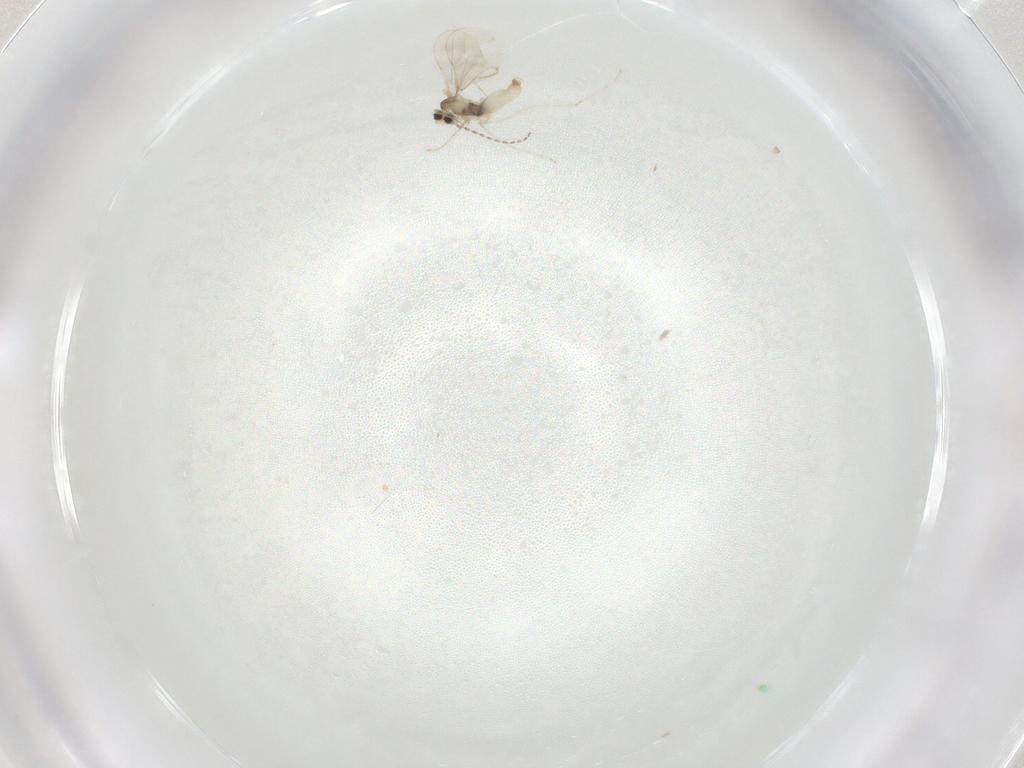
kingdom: Animalia
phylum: Arthropoda
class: Insecta
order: Diptera
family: Cecidomyiidae
